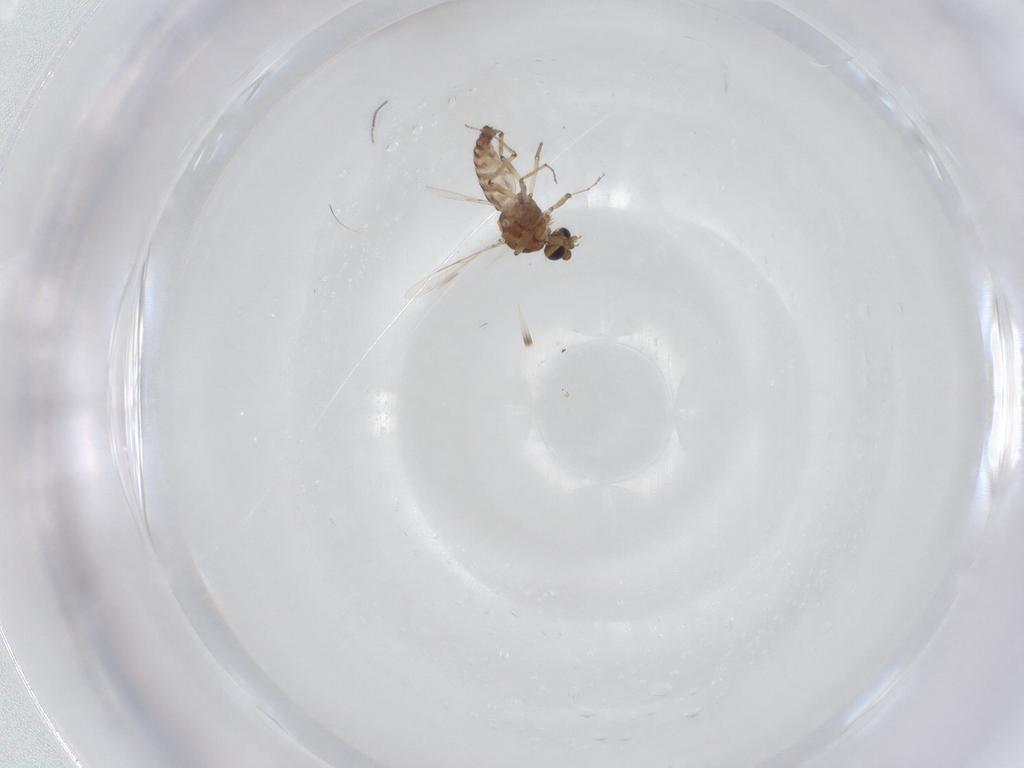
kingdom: Animalia
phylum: Arthropoda
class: Insecta
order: Diptera
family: Ceratopogonidae
